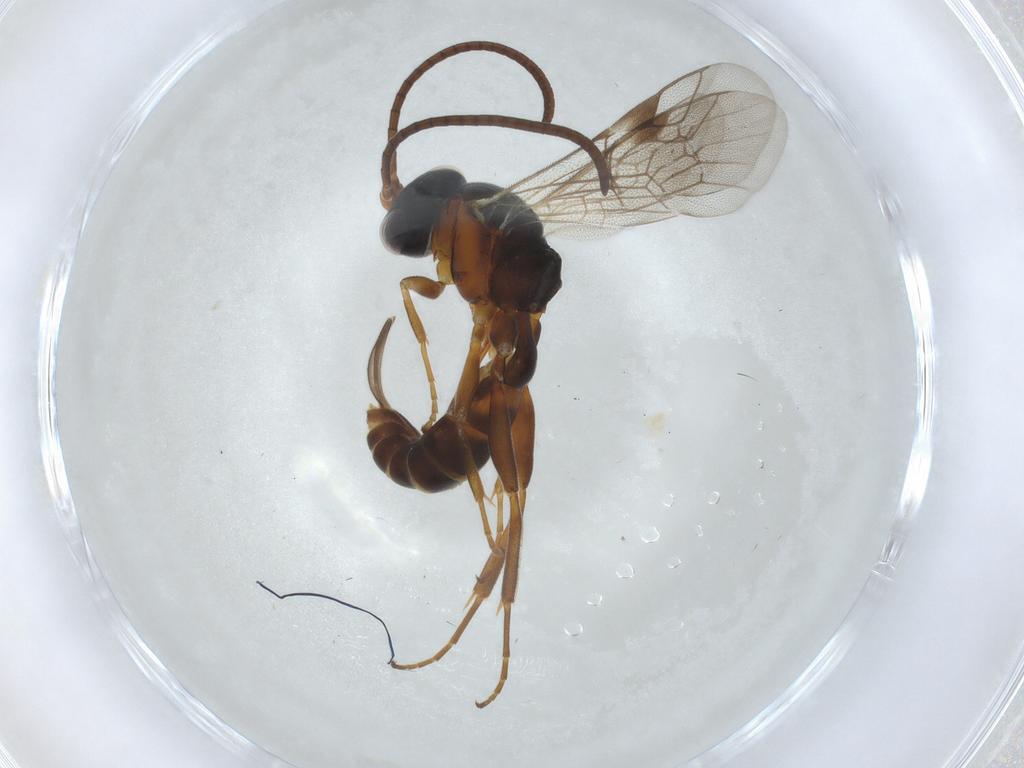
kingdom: Animalia
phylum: Arthropoda
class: Insecta
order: Hymenoptera
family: Ichneumonidae
